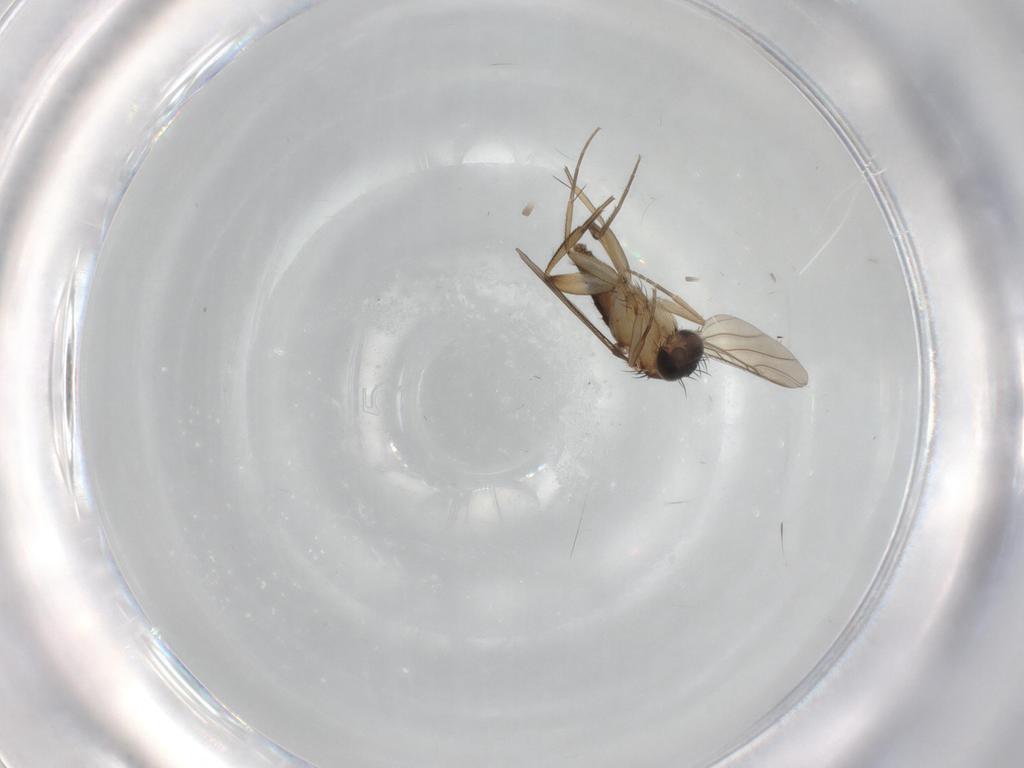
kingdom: Animalia
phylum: Arthropoda
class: Insecta
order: Diptera
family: Phoridae
